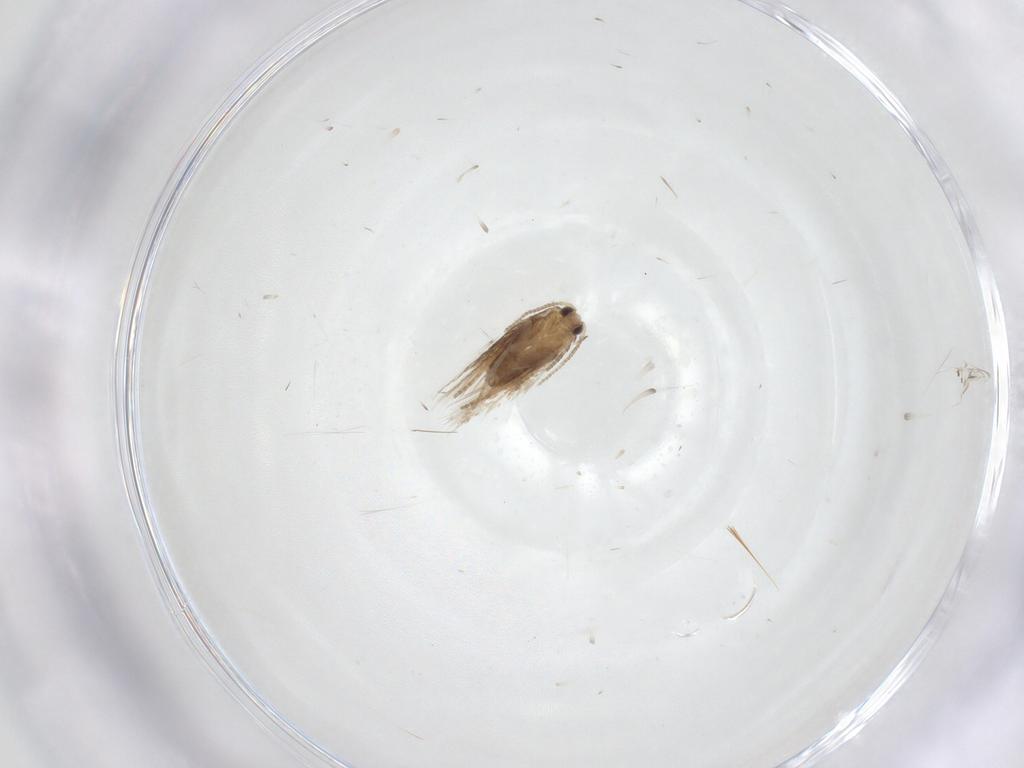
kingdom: Animalia
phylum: Arthropoda
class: Insecta
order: Lepidoptera
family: Nepticulidae
